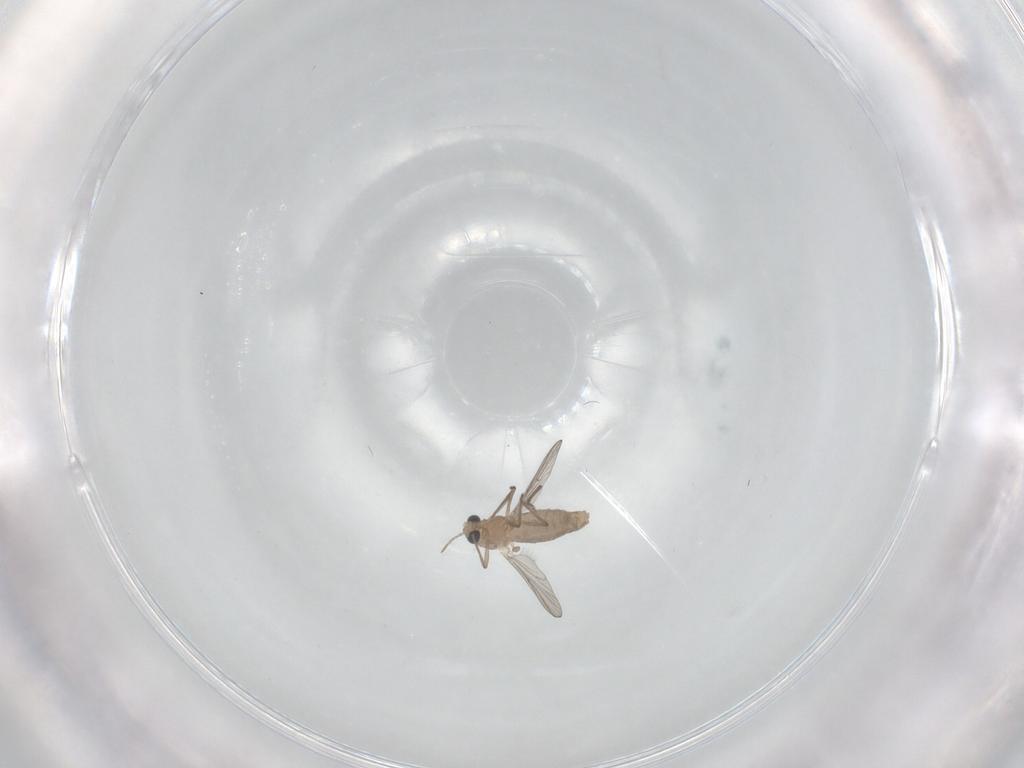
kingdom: Animalia
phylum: Arthropoda
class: Insecta
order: Diptera
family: Chironomidae
